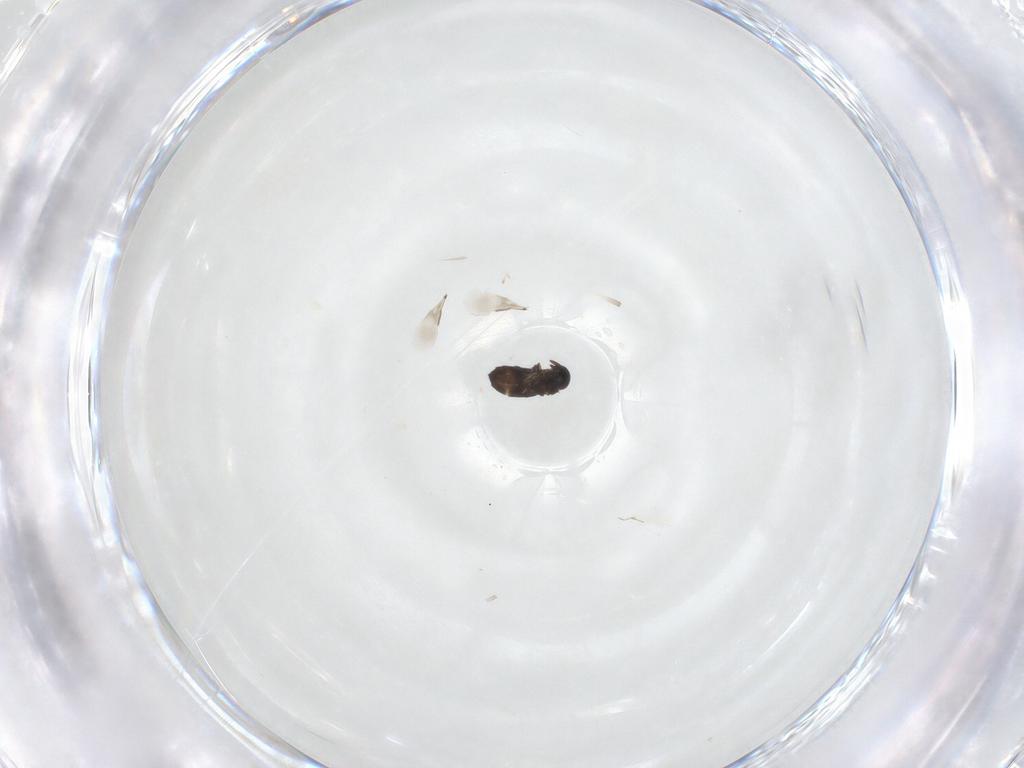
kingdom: Animalia
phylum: Arthropoda
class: Insecta
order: Hymenoptera
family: Signiphoridae
